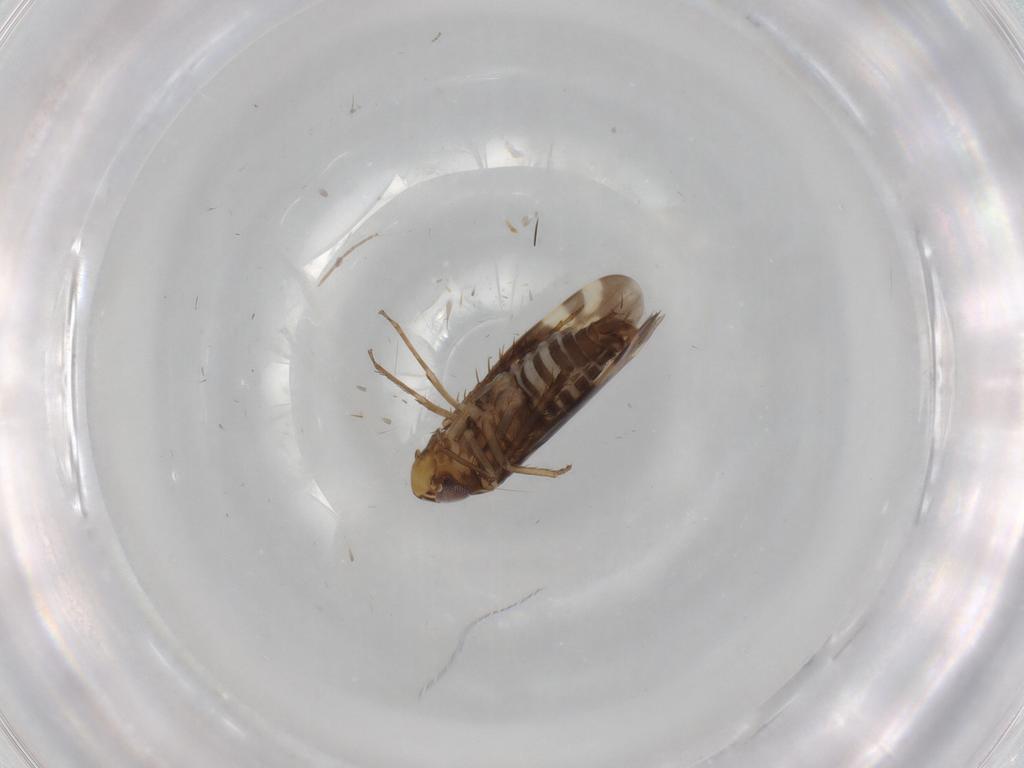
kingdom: Animalia
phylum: Arthropoda
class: Insecta
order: Hemiptera
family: Cicadellidae
